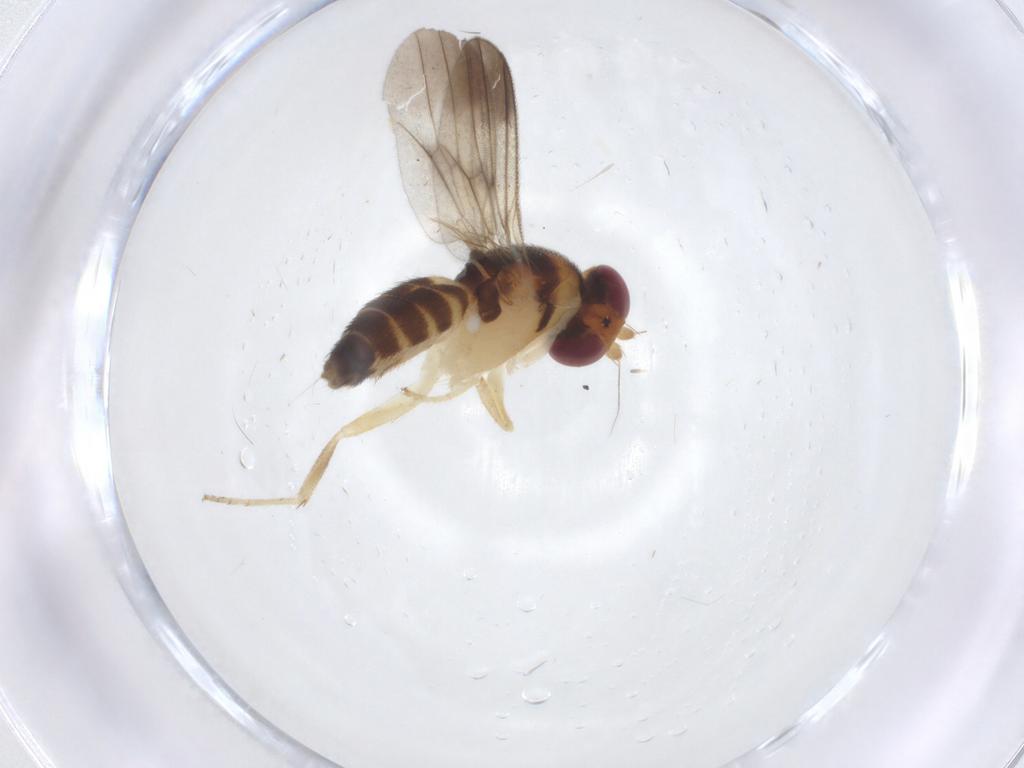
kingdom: Animalia
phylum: Arthropoda
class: Insecta
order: Diptera
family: Clusiidae
